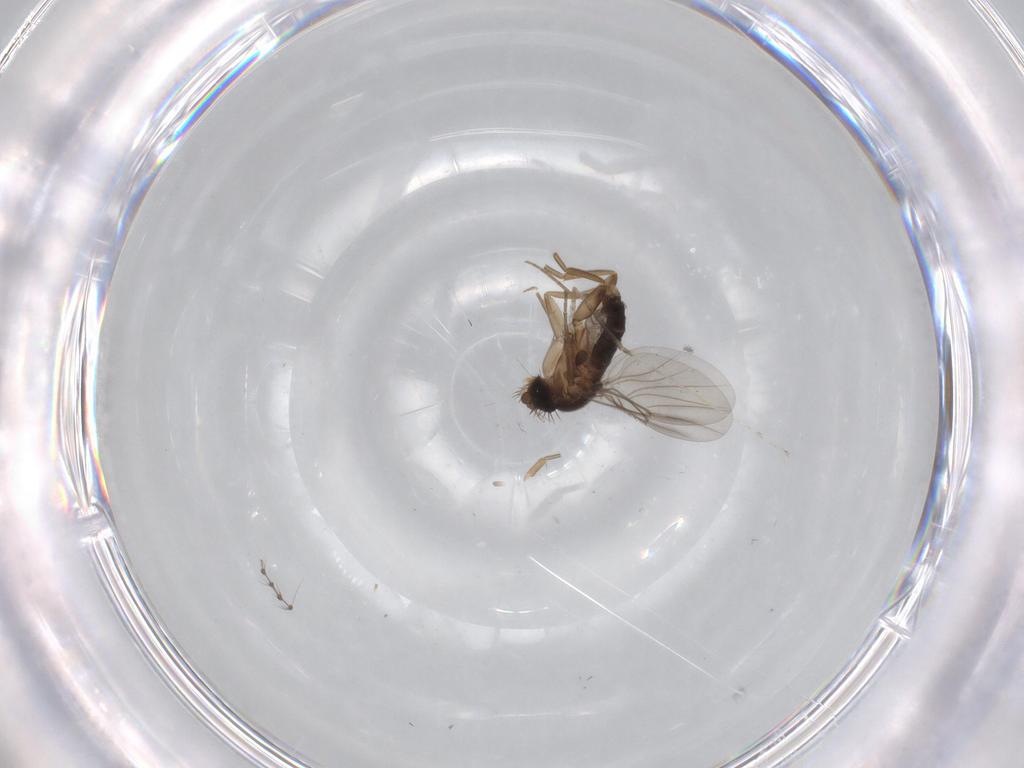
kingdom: Animalia
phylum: Arthropoda
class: Insecta
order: Diptera
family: Phoridae
